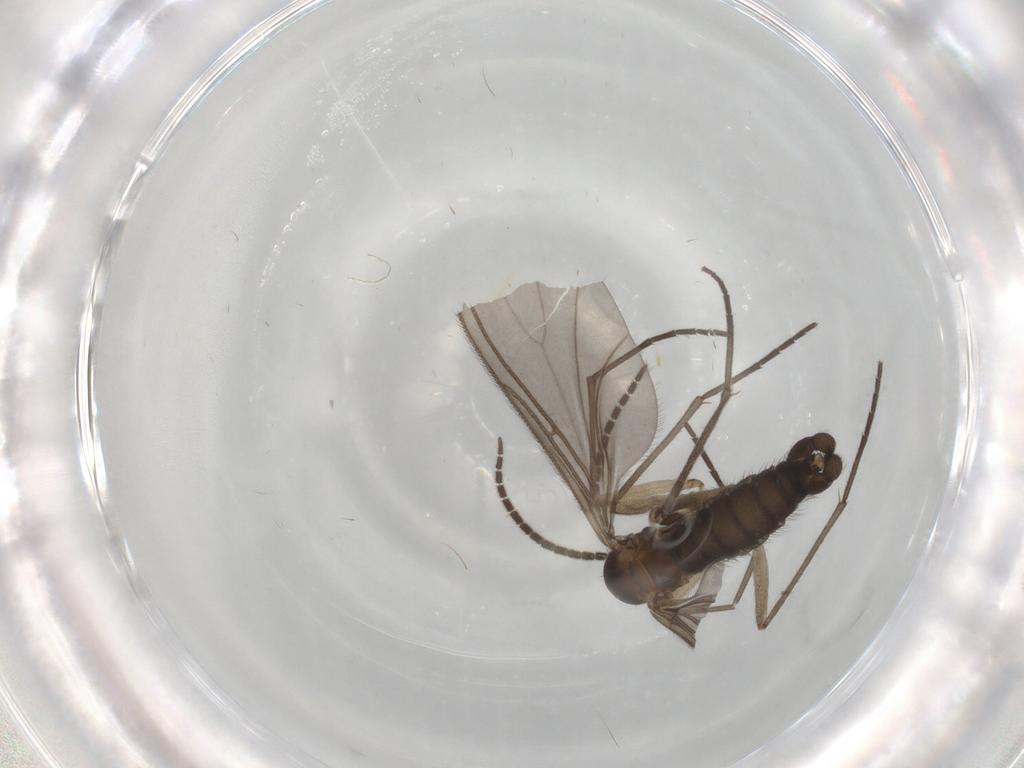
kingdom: Animalia
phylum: Arthropoda
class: Insecta
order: Diptera
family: Sciaridae
